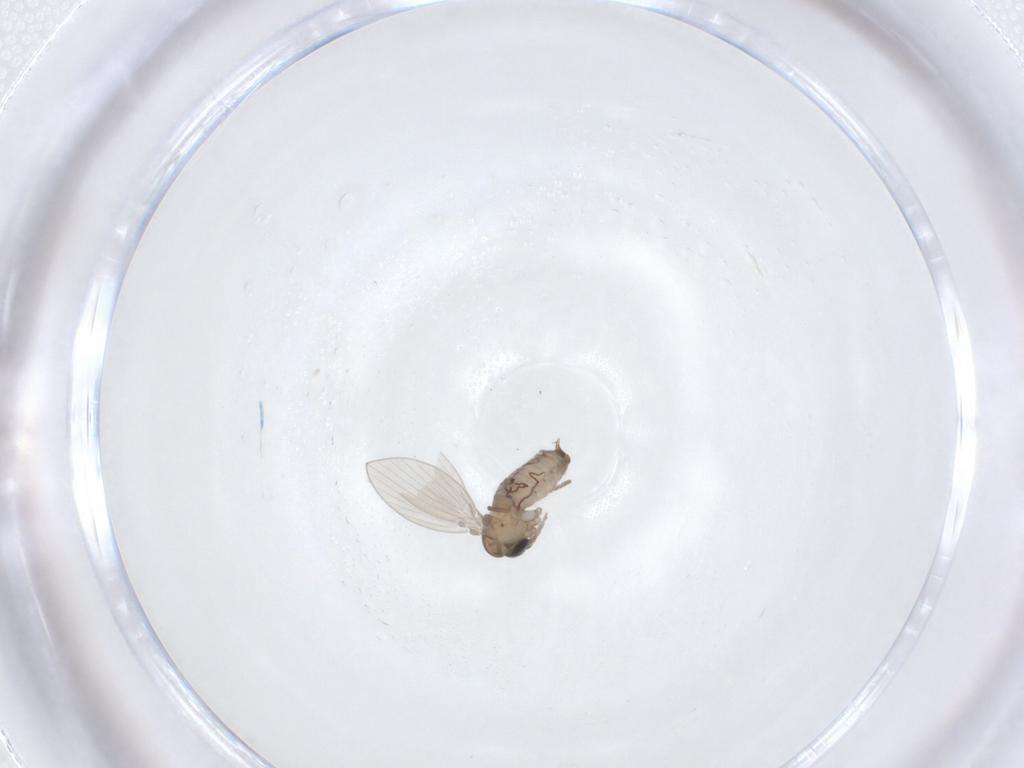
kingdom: Animalia
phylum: Arthropoda
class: Insecta
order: Diptera
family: Psychodidae
